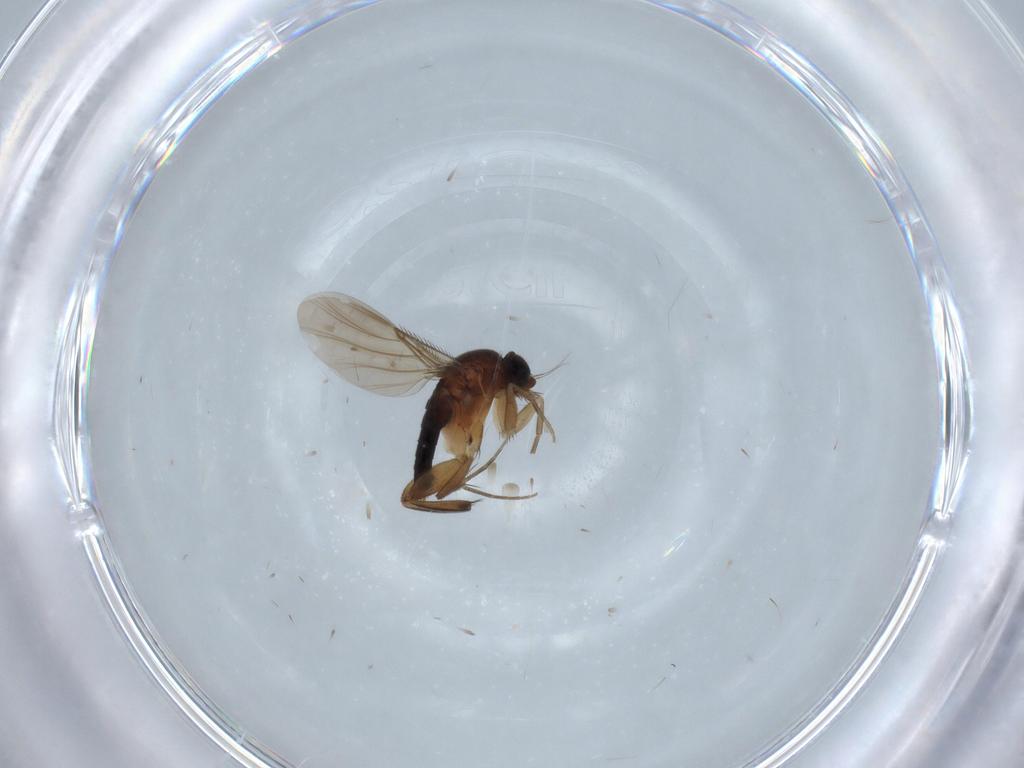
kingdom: Animalia
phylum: Arthropoda
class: Insecta
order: Diptera
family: Phoridae
